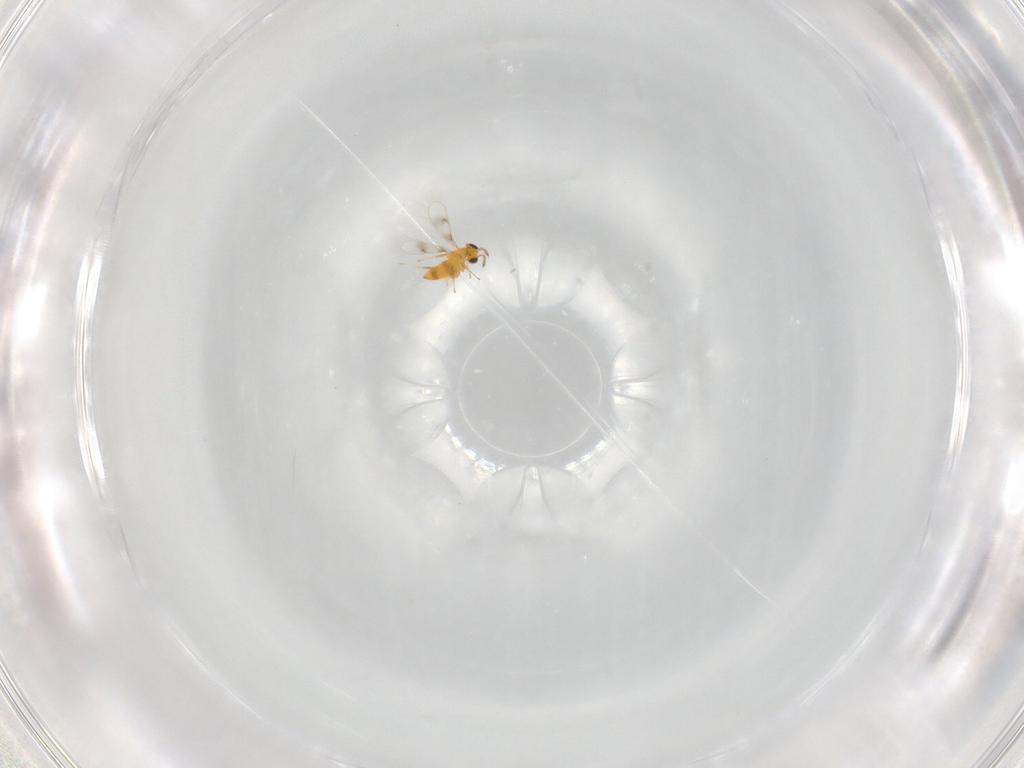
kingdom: Animalia
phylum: Arthropoda
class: Insecta
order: Hymenoptera
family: Aphelinidae
